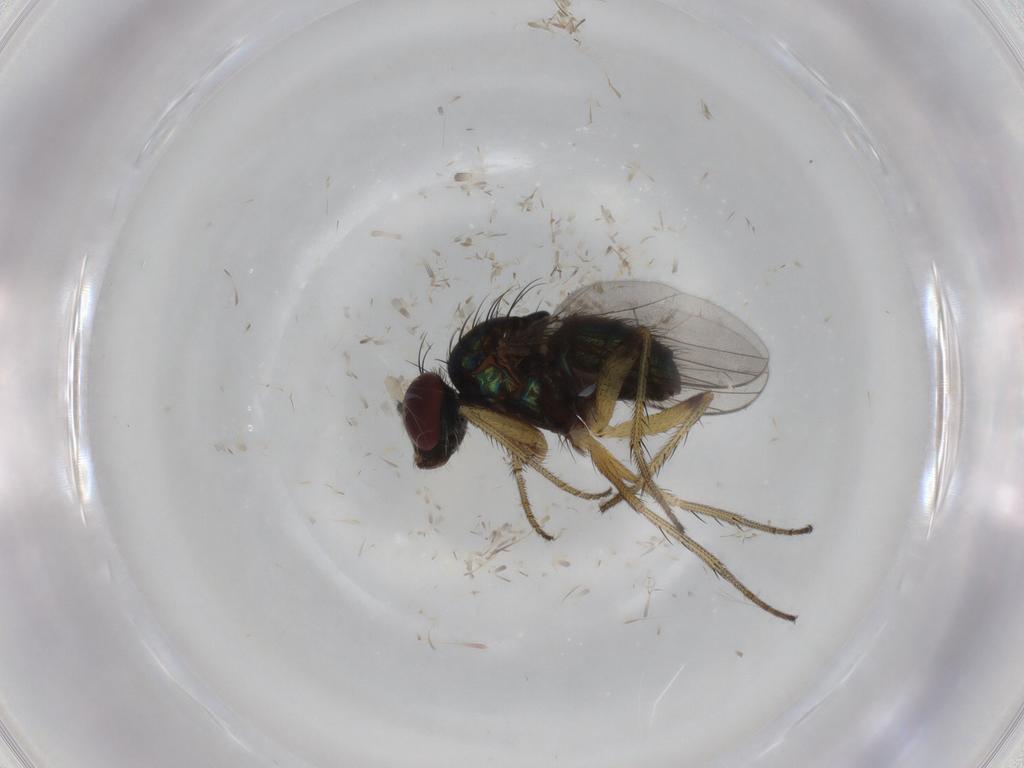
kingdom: Animalia
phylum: Arthropoda
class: Insecta
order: Diptera
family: Dolichopodidae
